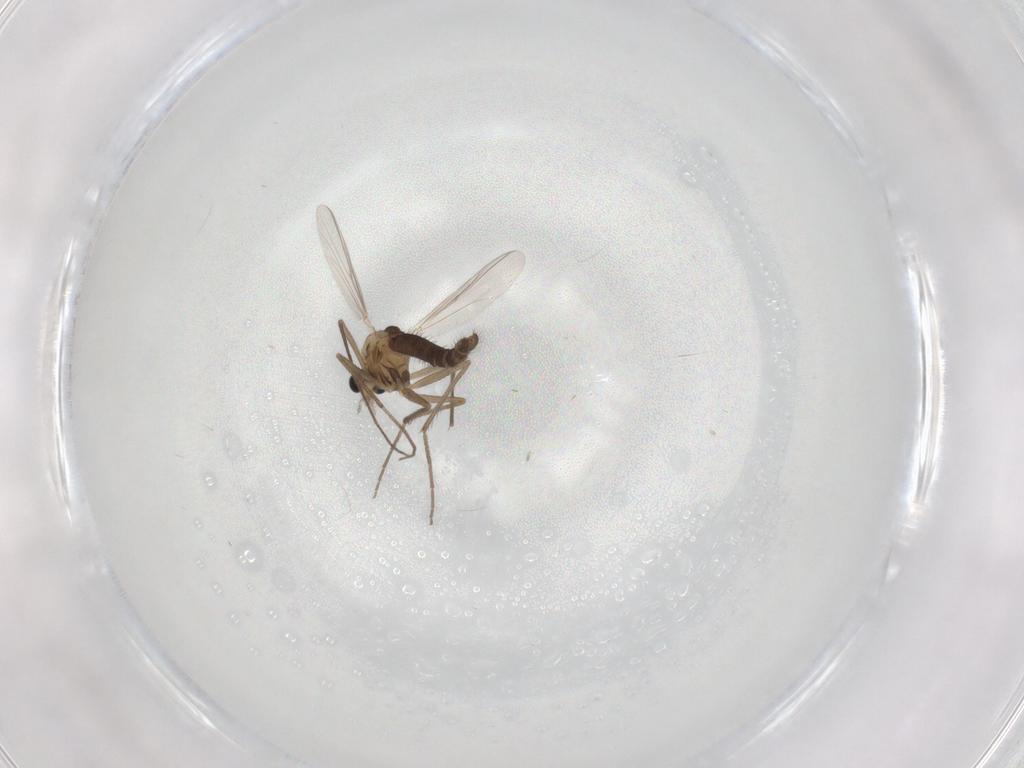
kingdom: Animalia
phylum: Arthropoda
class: Insecta
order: Diptera
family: Chironomidae
